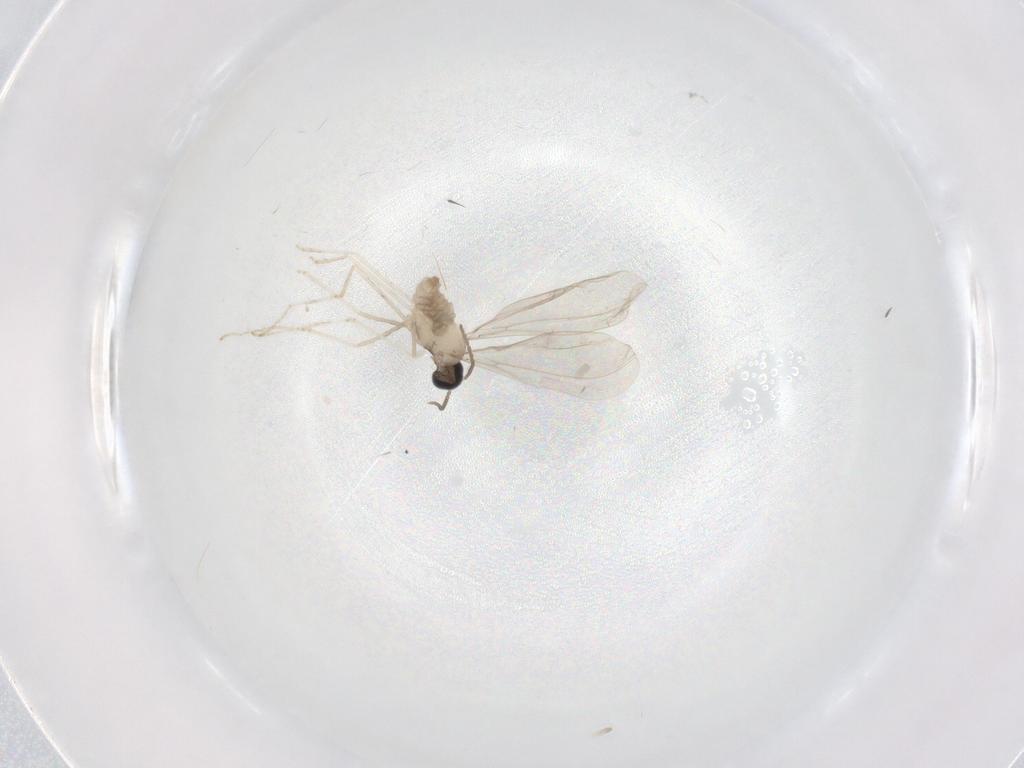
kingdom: Animalia
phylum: Arthropoda
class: Insecta
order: Diptera
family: Cecidomyiidae
